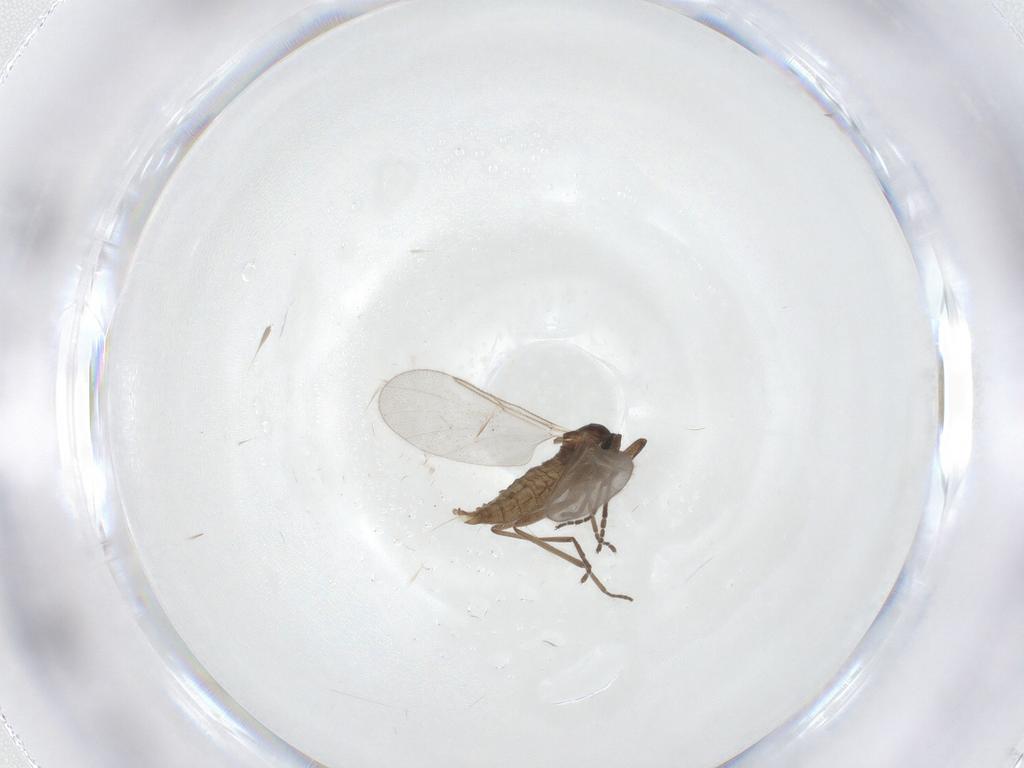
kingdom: Animalia
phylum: Arthropoda
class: Insecta
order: Diptera
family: Cecidomyiidae
